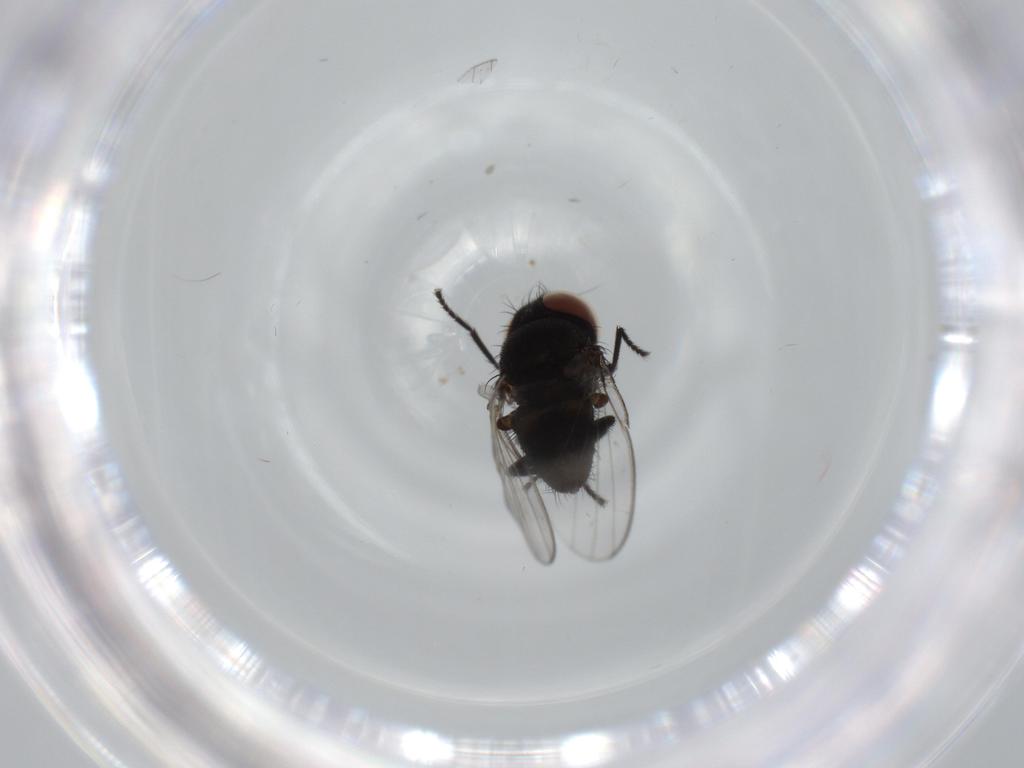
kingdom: Animalia
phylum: Arthropoda
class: Insecta
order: Diptera
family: Milichiidae
